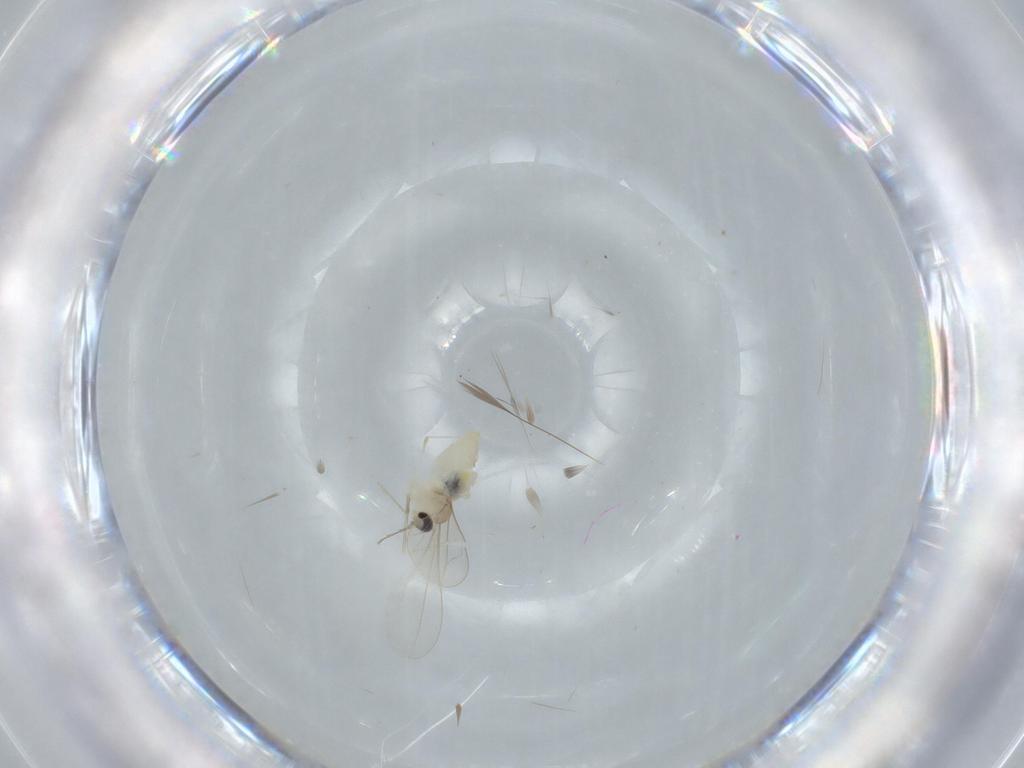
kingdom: Animalia
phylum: Arthropoda
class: Insecta
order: Diptera
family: Cecidomyiidae
